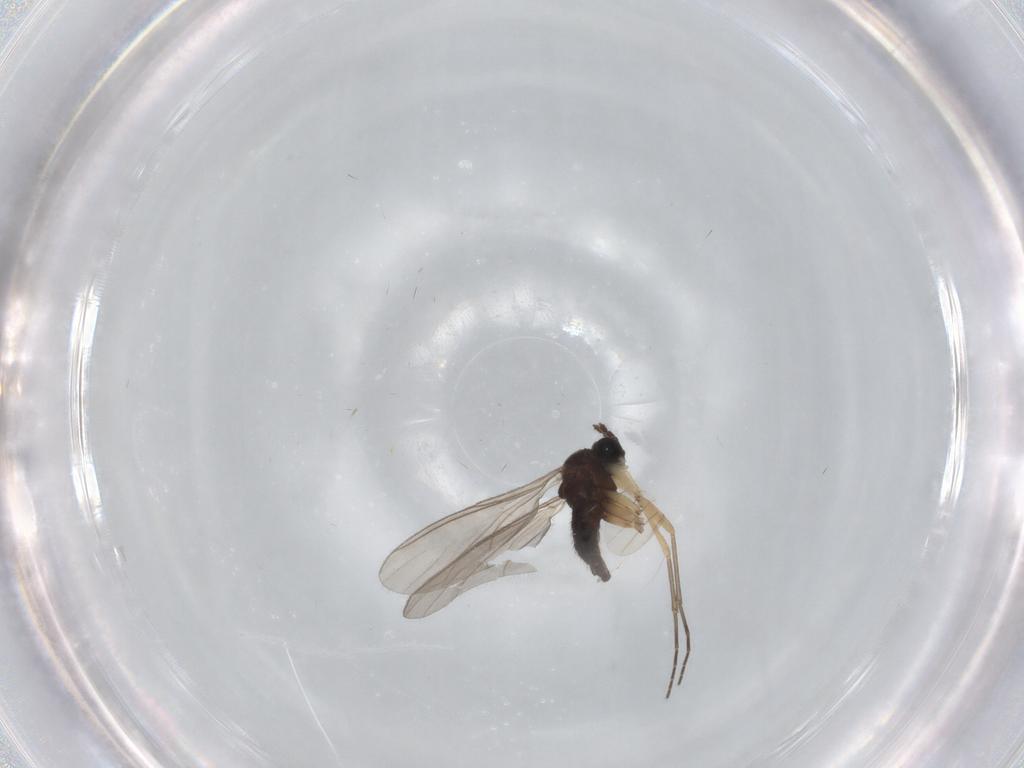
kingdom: Animalia
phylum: Arthropoda
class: Insecta
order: Diptera
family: Sciaridae
